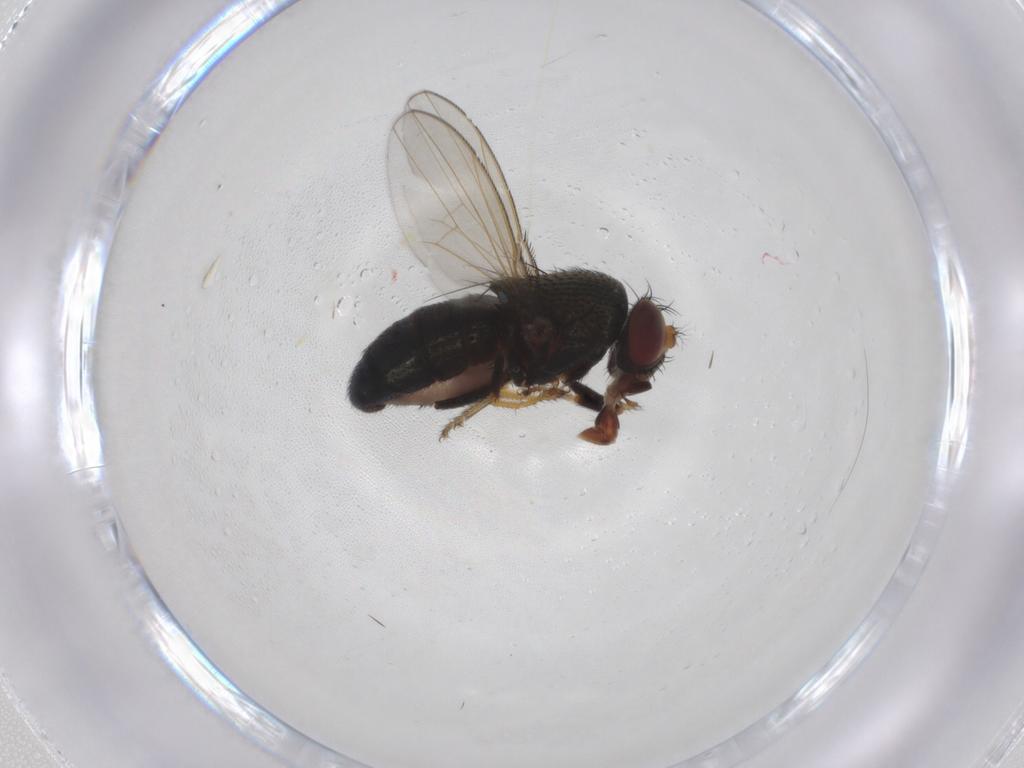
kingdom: Animalia
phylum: Arthropoda
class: Insecta
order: Diptera
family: Ephydridae
